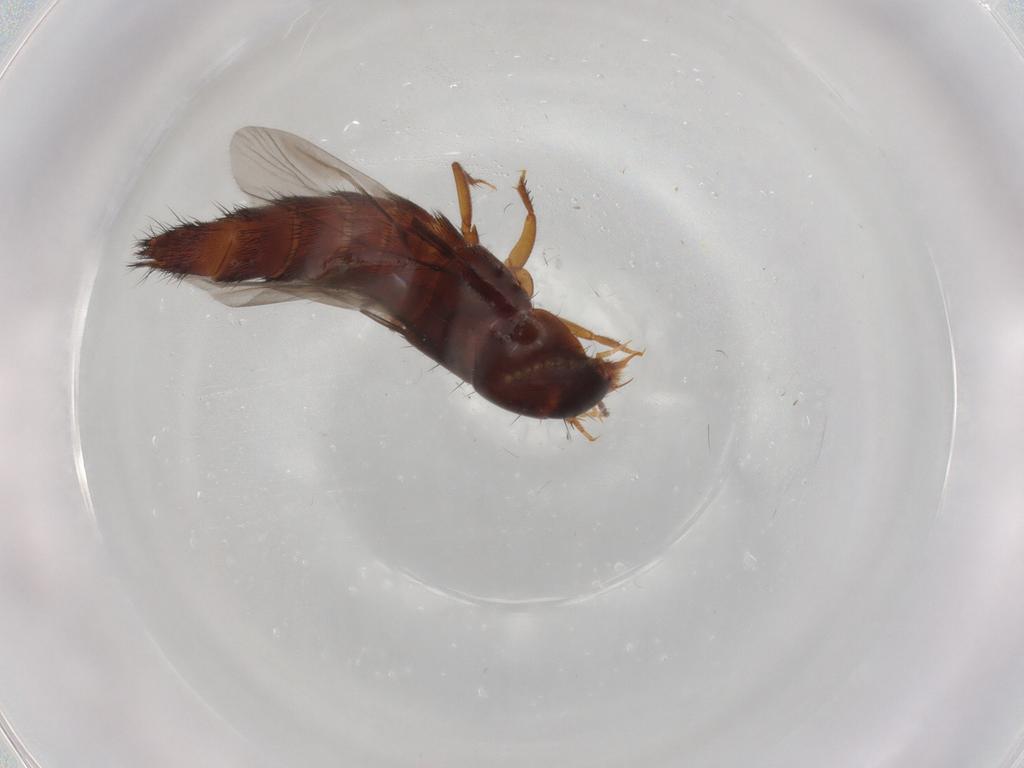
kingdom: Animalia
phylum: Arthropoda
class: Insecta
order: Coleoptera
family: Staphylinidae
